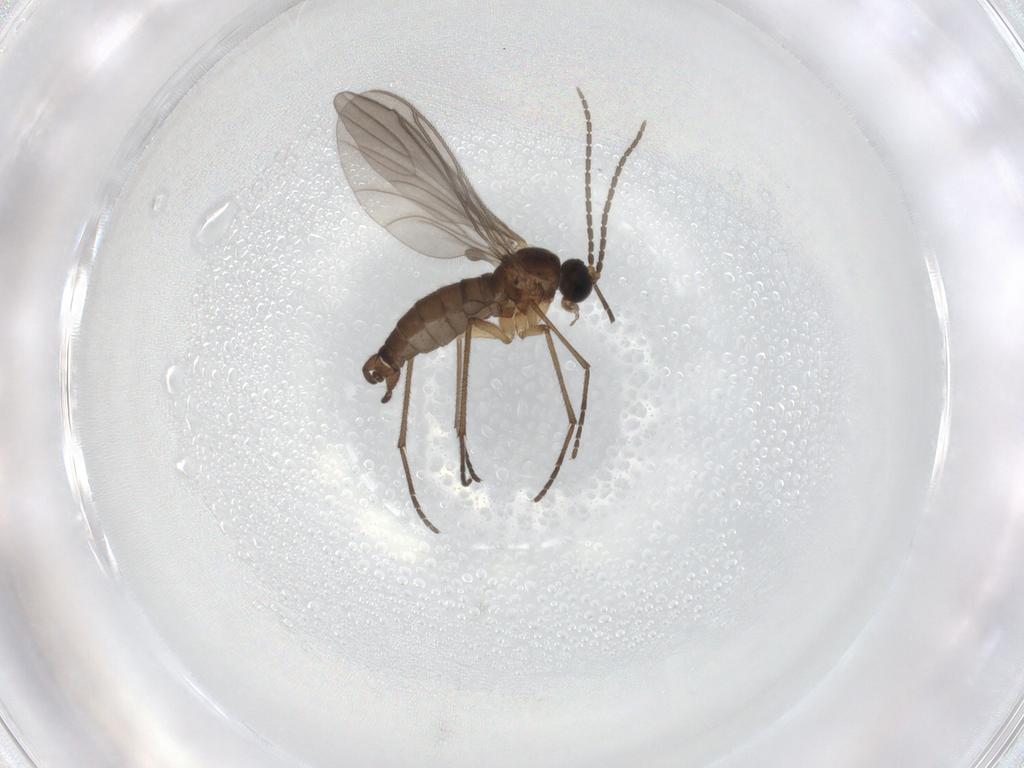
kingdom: Animalia
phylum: Arthropoda
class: Insecta
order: Diptera
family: Sciaridae
